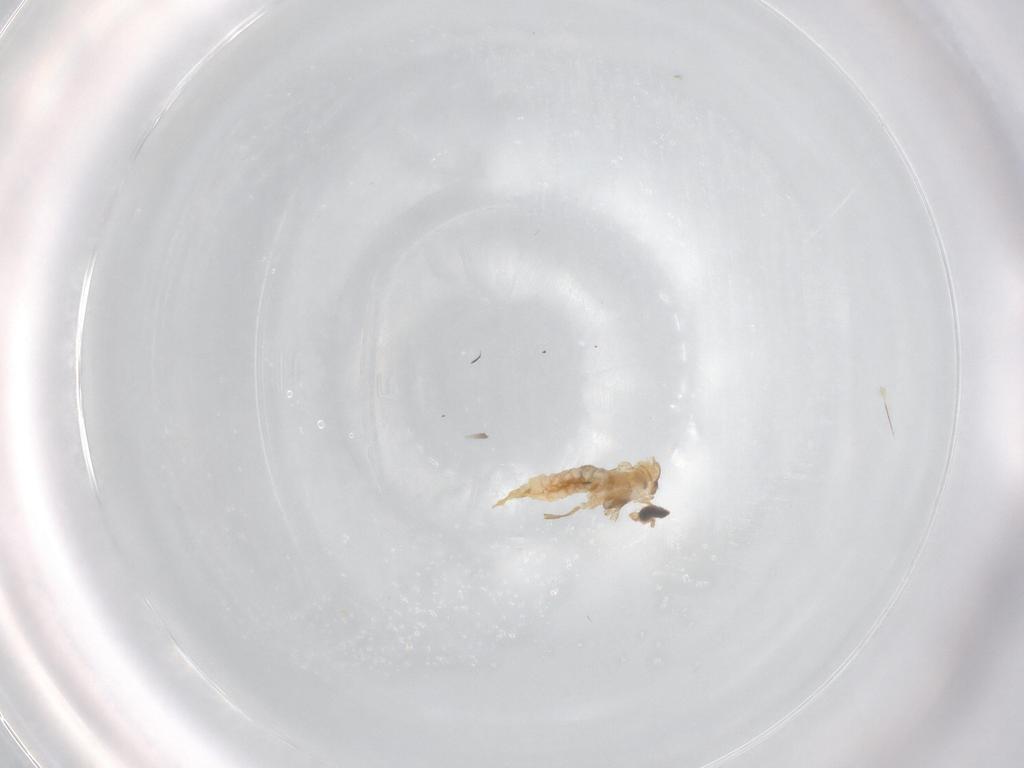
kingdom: Animalia
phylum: Arthropoda
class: Insecta
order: Diptera
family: Cecidomyiidae
